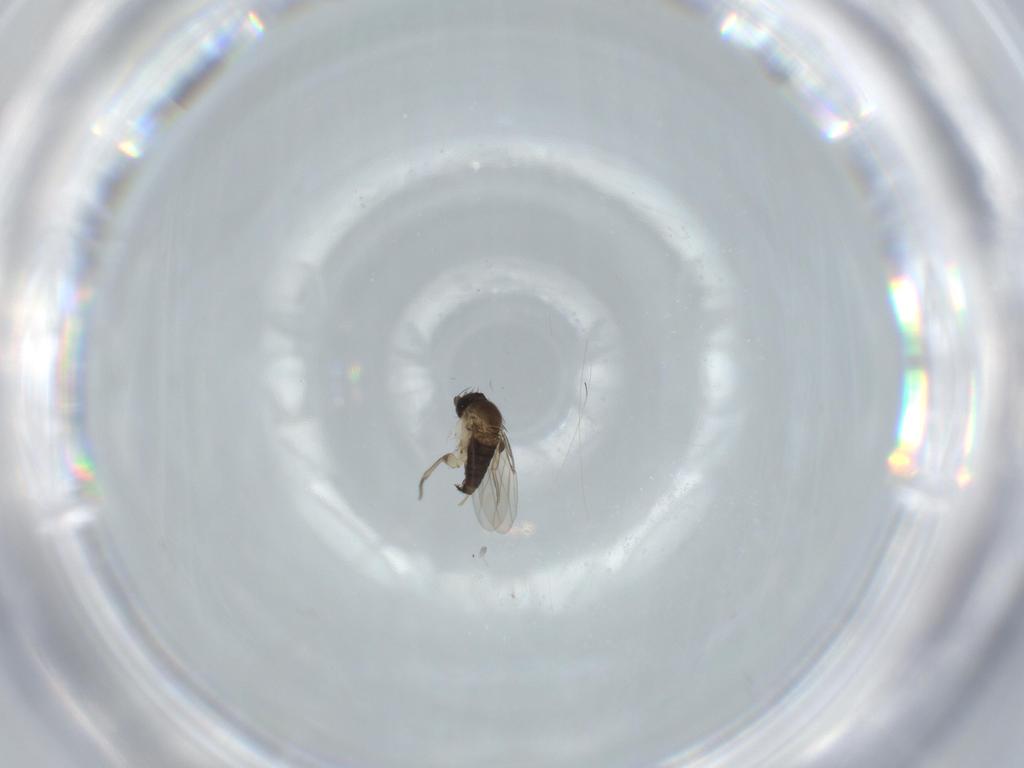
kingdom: Animalia
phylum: Arthropoda
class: Insecta
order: Diptera
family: Phoridae
